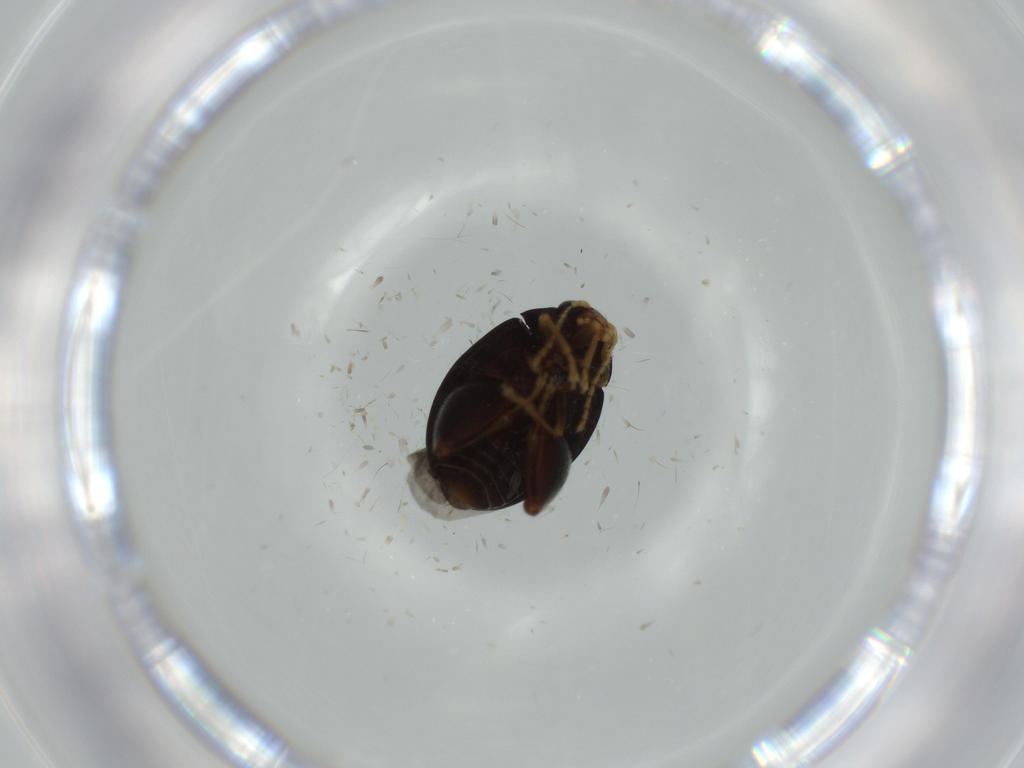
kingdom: Animalia
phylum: Arthropoda
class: Insecta
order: Coleoptera
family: Chrysomelidae
